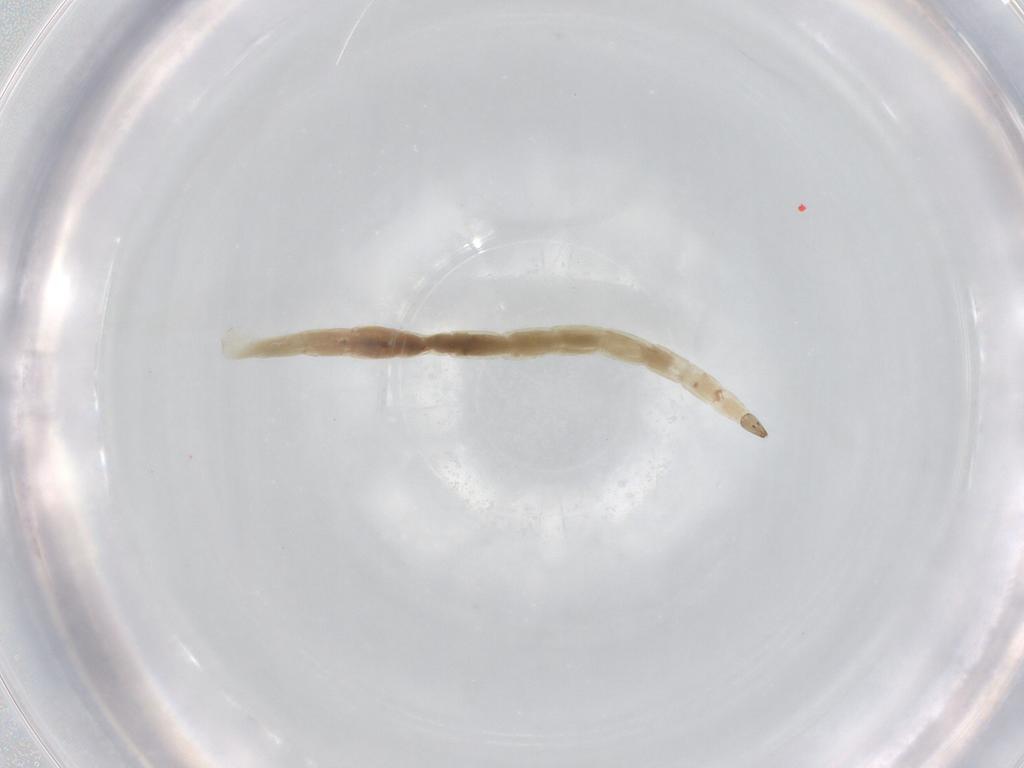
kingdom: Animalia
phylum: Arthropoda
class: Insecta
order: Diptera
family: Ceratopogonidae
